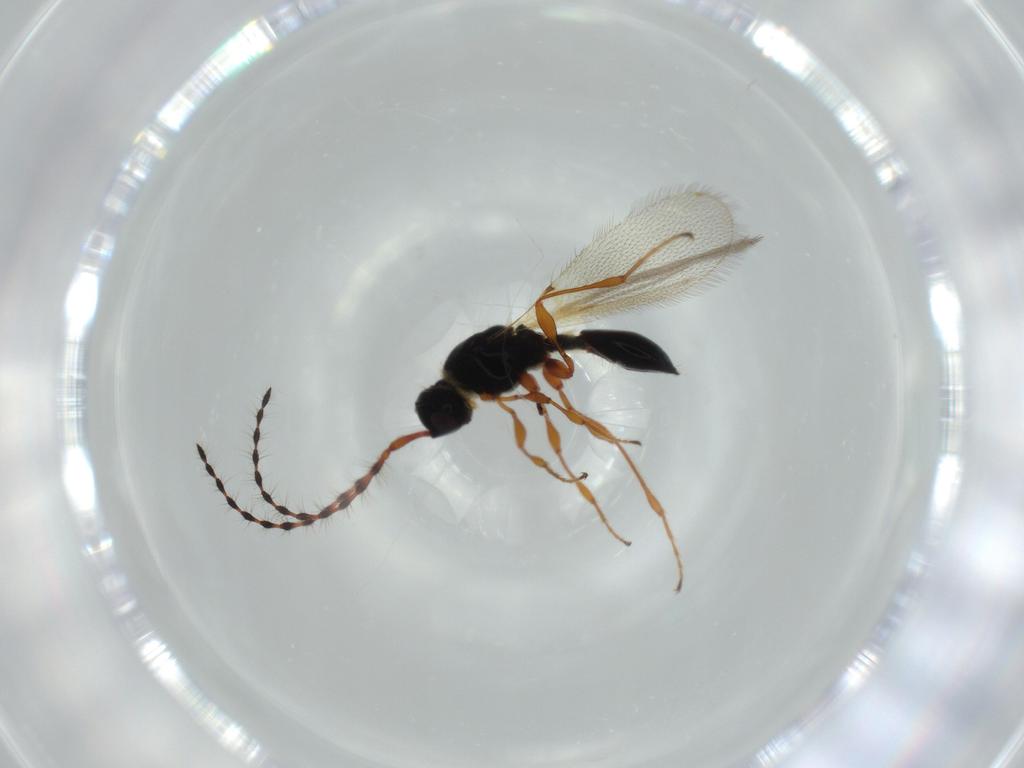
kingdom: Animalia
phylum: Arthropoda
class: Insecta
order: Hymenoptera
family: Diapriidae
